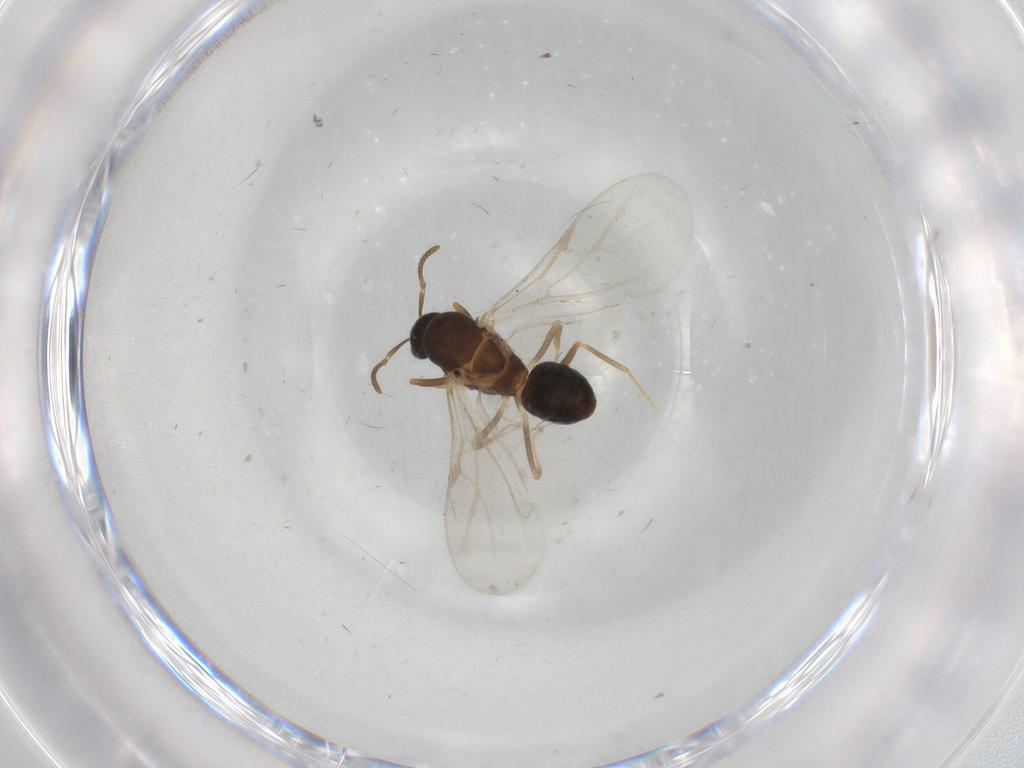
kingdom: Animalia
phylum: Arthropoda
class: Insecta
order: Hymenoptera
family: Formicidae
